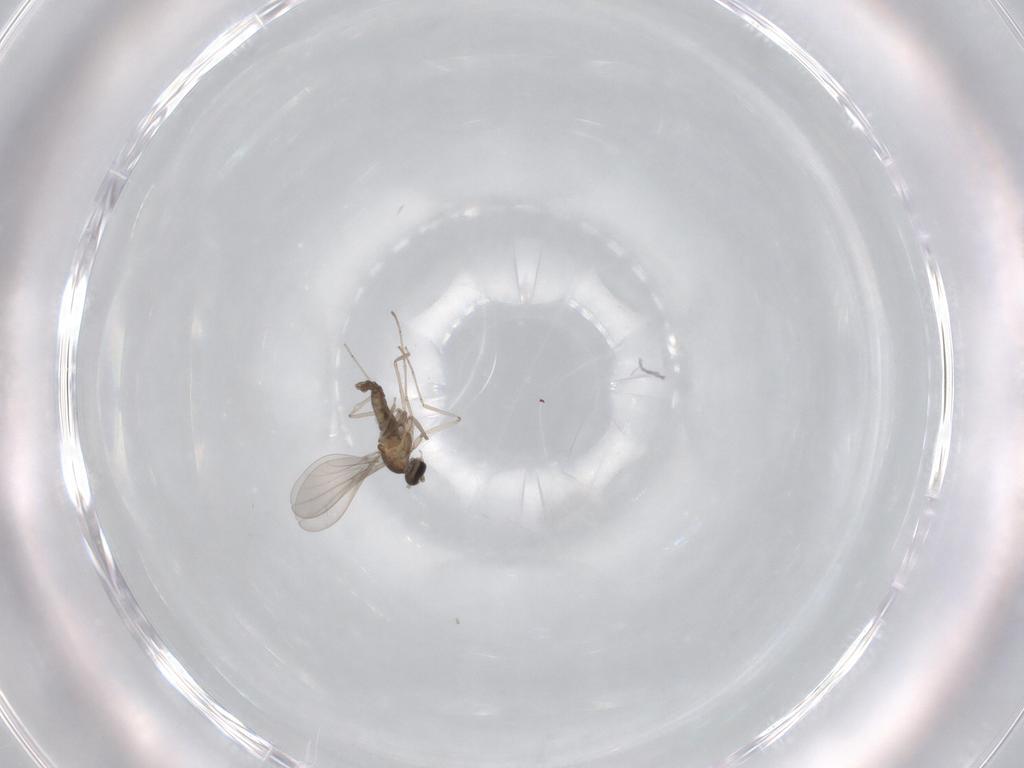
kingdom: Animalia
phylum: Arthropoda
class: Insecta
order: Diptera
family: Cecidomyiidae
